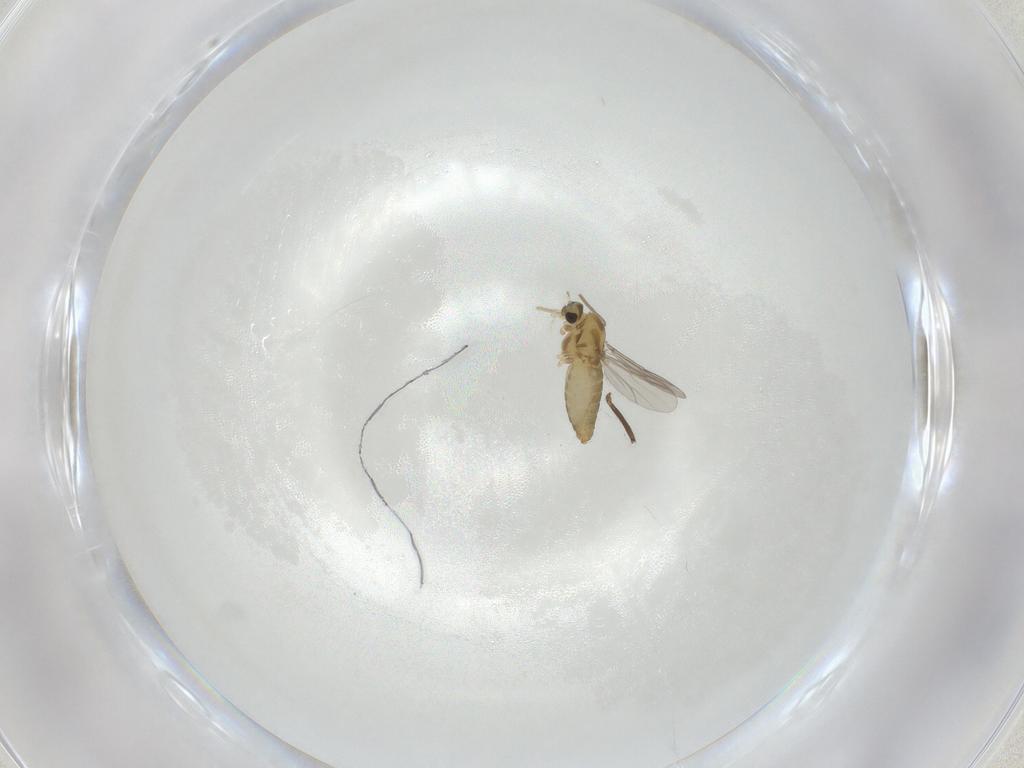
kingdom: Animalia
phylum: Arthropoda
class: Insecta
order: Diptera
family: Chironomidae
